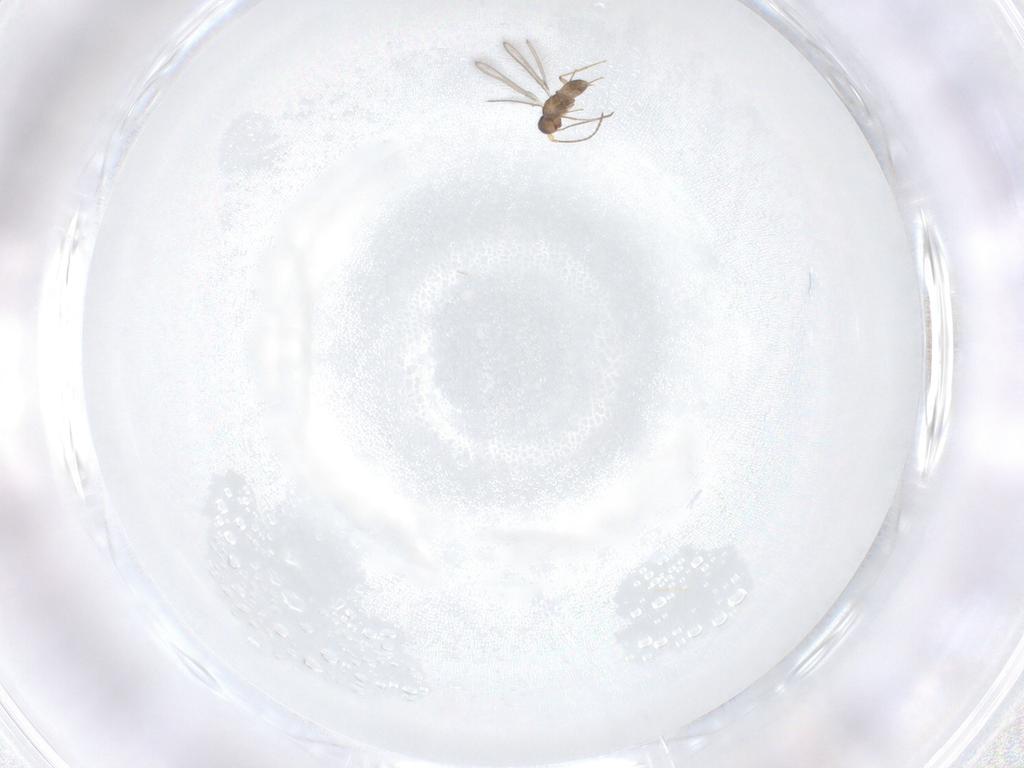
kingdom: Animalia
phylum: Arthropoda
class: Insecta
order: Hymenoptera
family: Mymaridae
